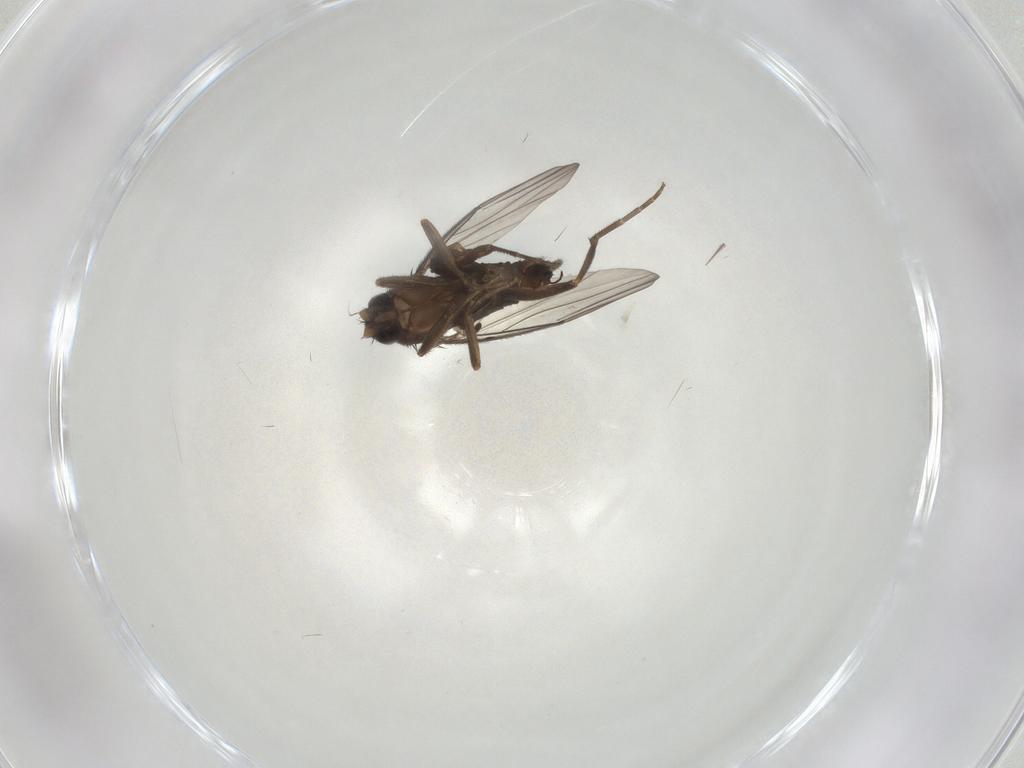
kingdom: Animalia
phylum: Arthropoda
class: Insecta
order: Diptera
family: Chironomidae
